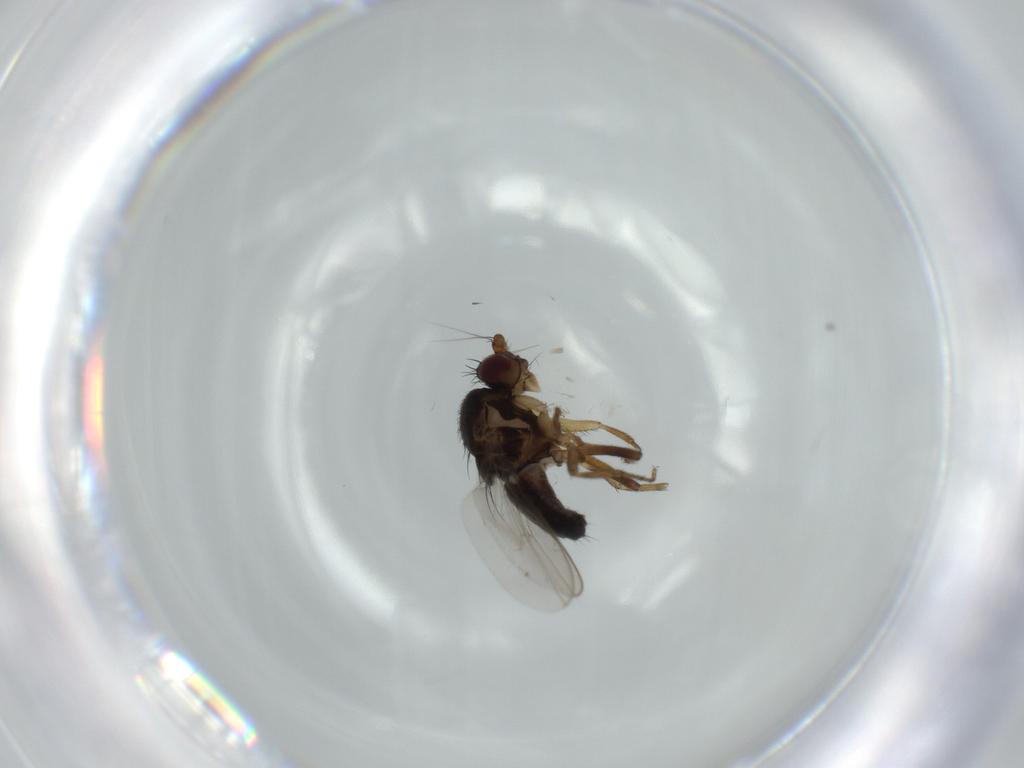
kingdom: Animalia
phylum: Arthropoda
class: Insecta
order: Diptera
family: Sphaeroceridae
